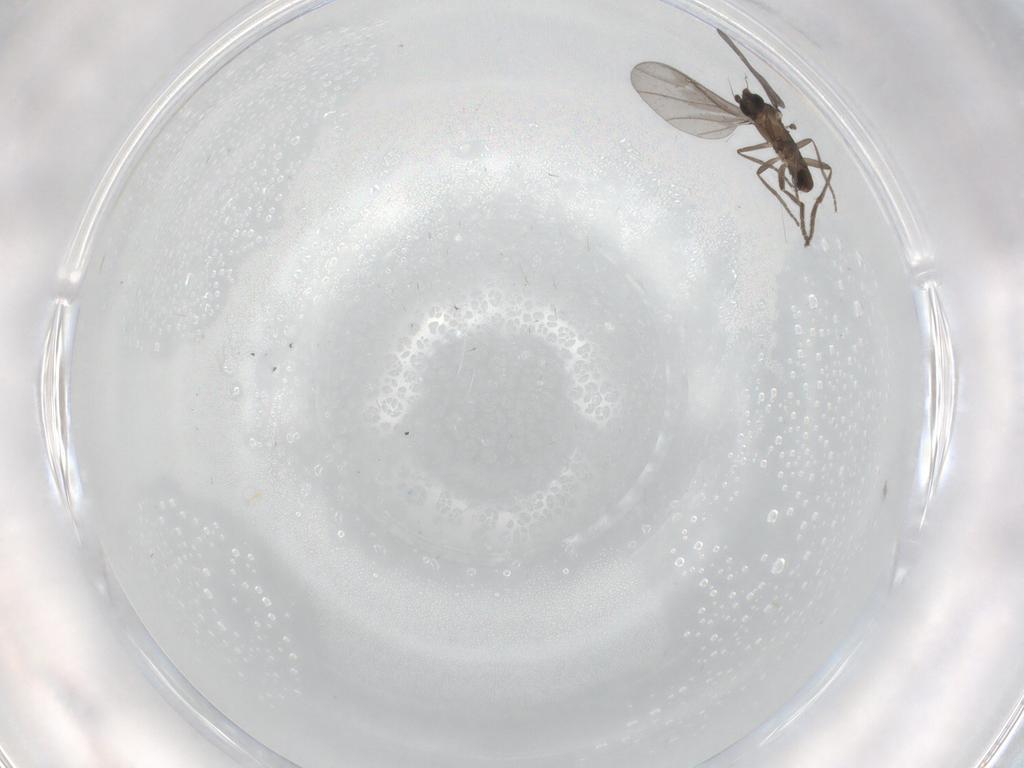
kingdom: Animalia
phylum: Arthropoda
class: Insecta
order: Diptera
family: Phoridae
